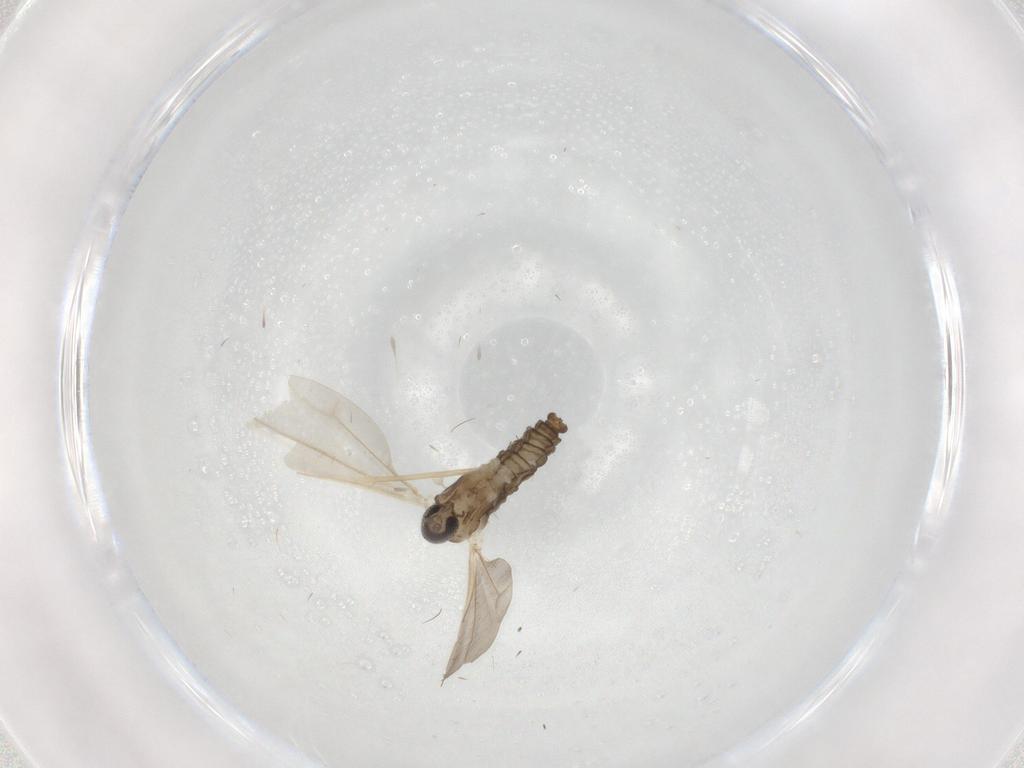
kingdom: Animalia
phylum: Arthropoda
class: Insecta
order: Diptera
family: Cecidomyiidae
